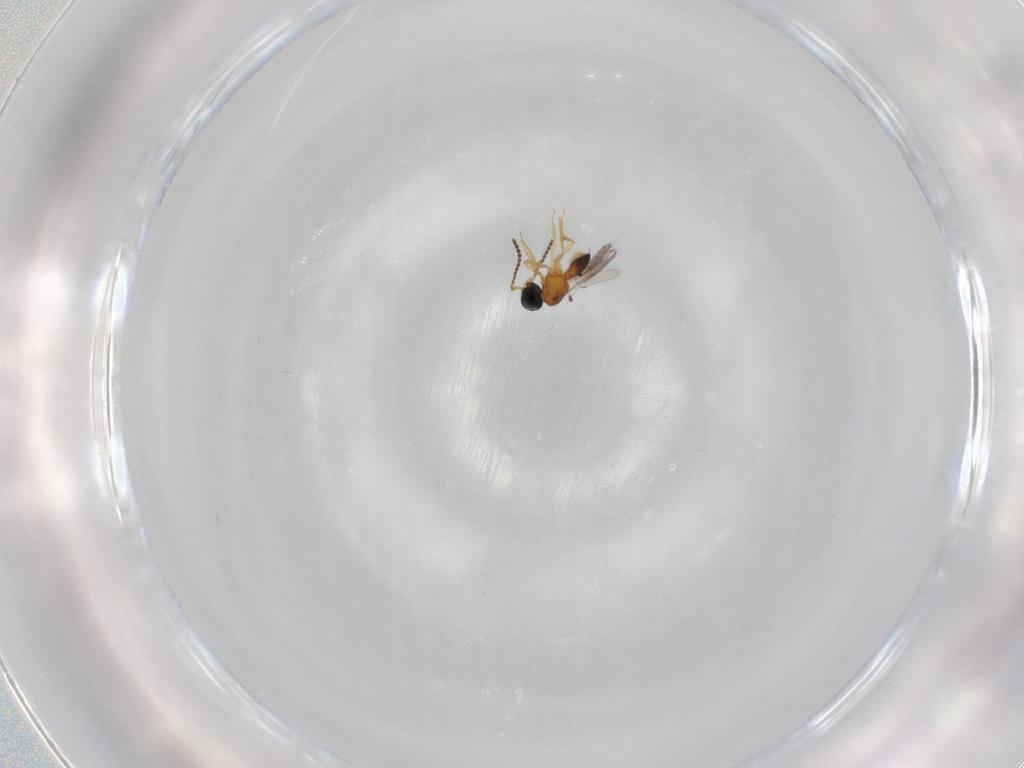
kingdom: Animalia
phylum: Arthropoda
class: Insecta
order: Hymenoptera
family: Scelionidae
